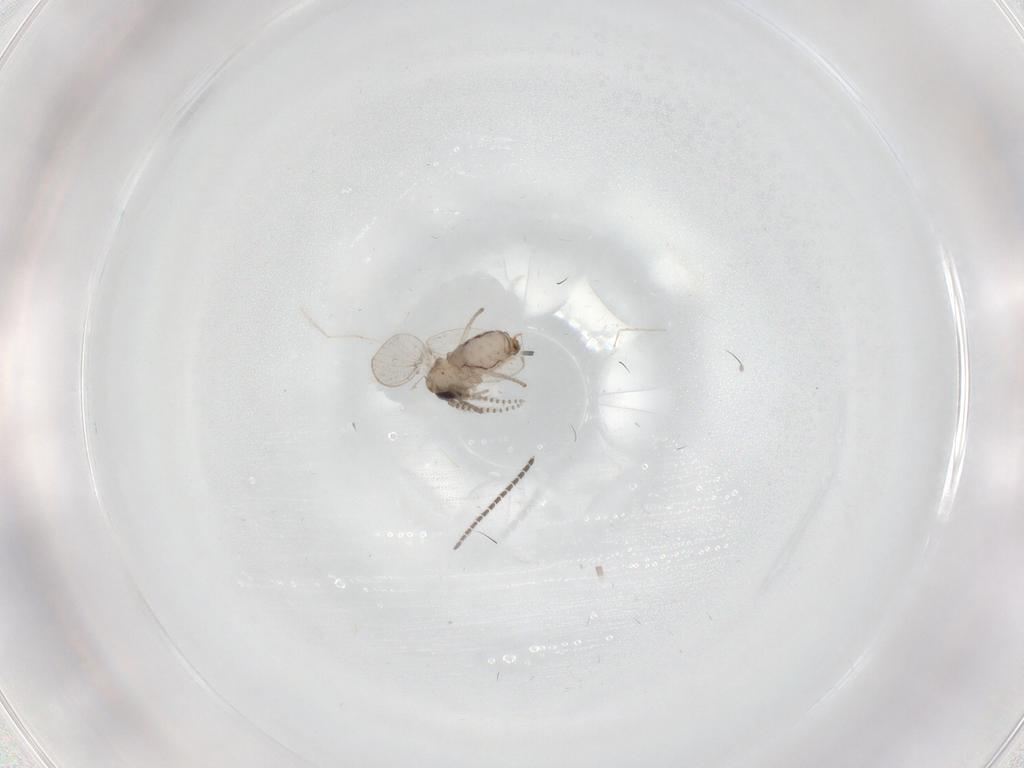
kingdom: Animalia
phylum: Arthropoda
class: Insecta
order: Diptera
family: Psychodidae
